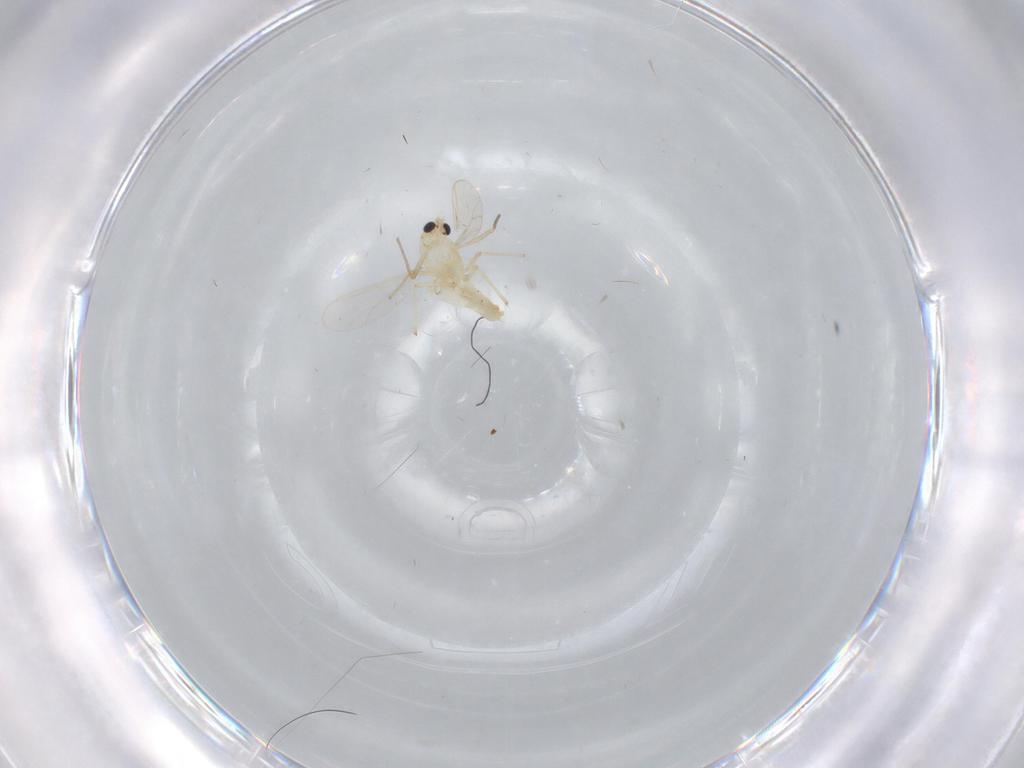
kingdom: Animalia
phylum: Arthropoda
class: Insecta
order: Diptera
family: Chironomidae
